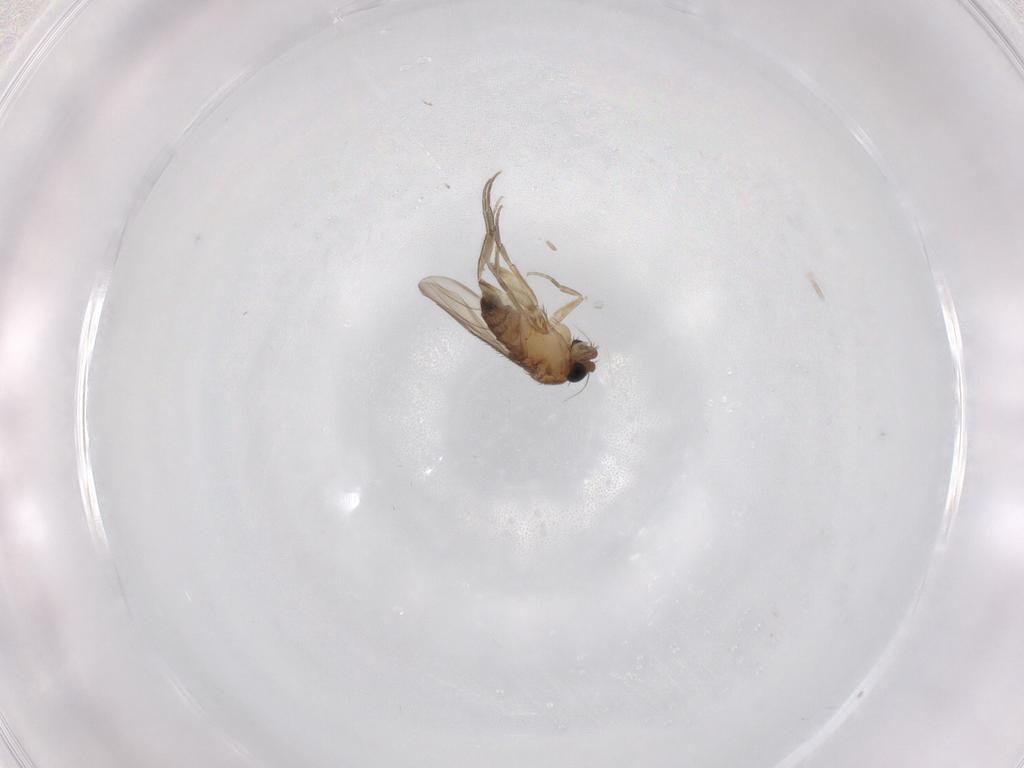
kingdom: Animalia
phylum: Arthropoda
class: Insecta
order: Diptera
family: Phoridae
